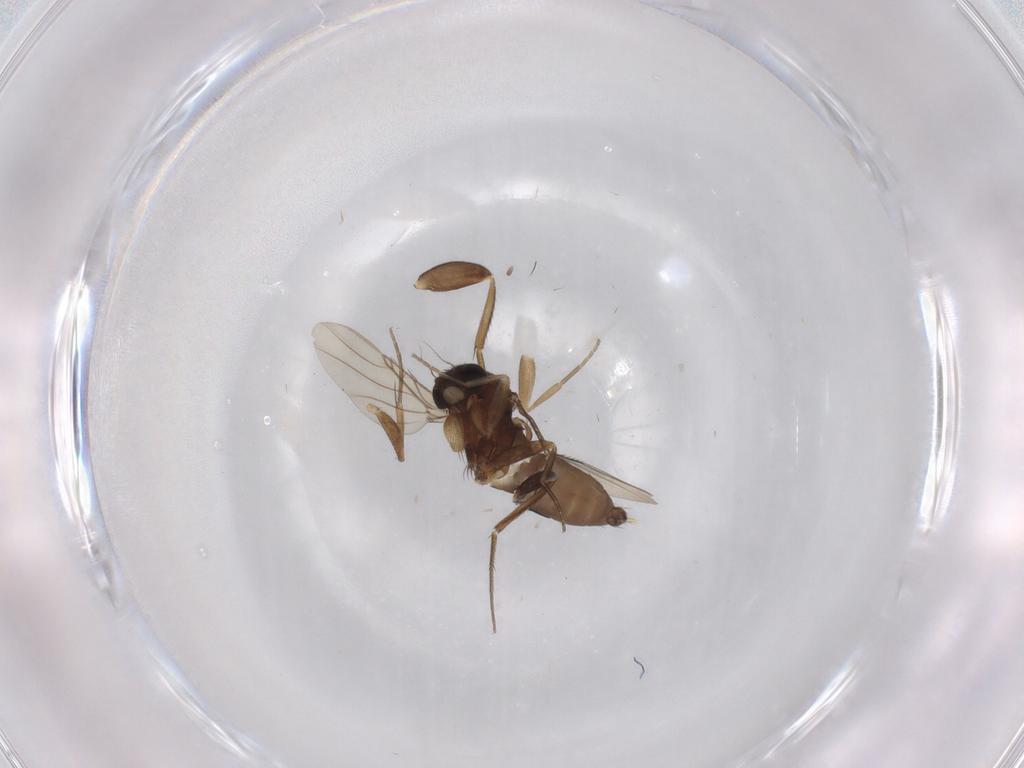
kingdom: Animalia
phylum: Arthropoda
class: Insecta
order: Diptera
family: Phoridae
